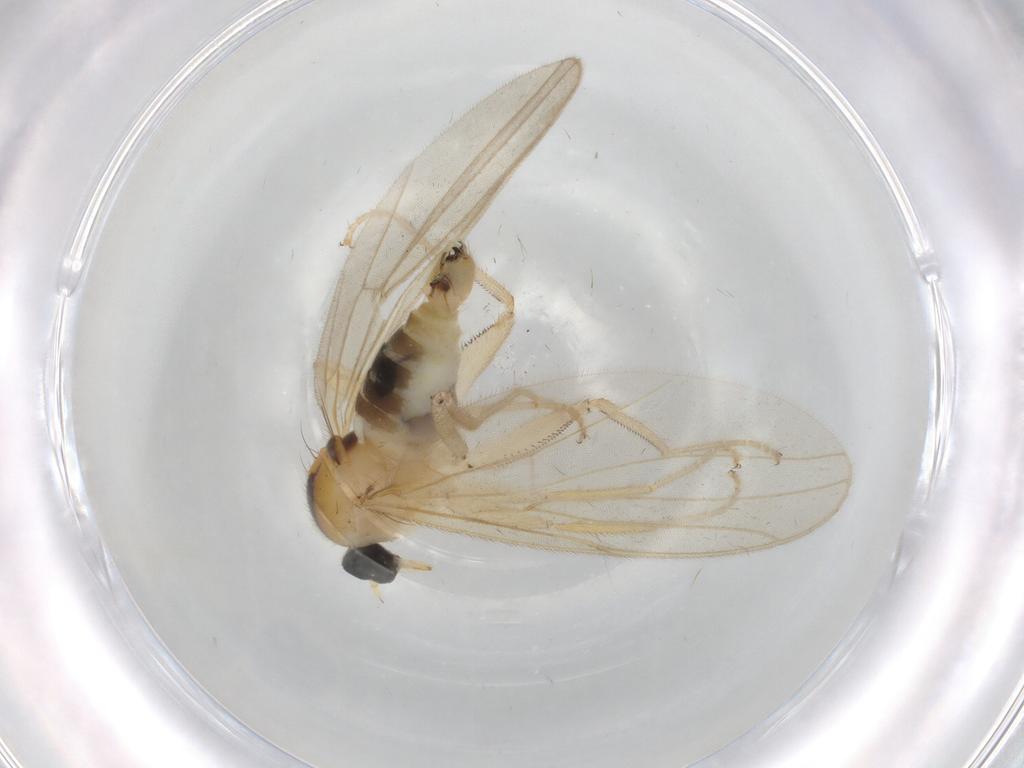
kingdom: Animalia
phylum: Arthropoda
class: Insecta
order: Diptera
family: Hybotidae
